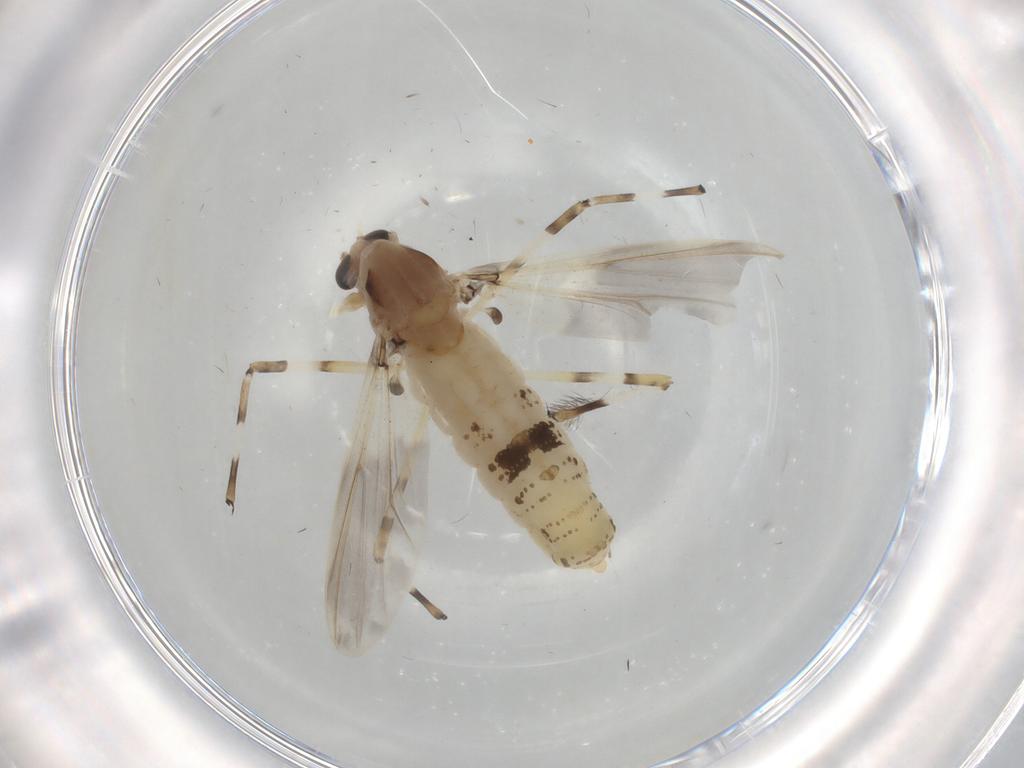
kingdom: Animalia
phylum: Arthropoda
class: Insecta
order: Diptera
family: Chironomidae
